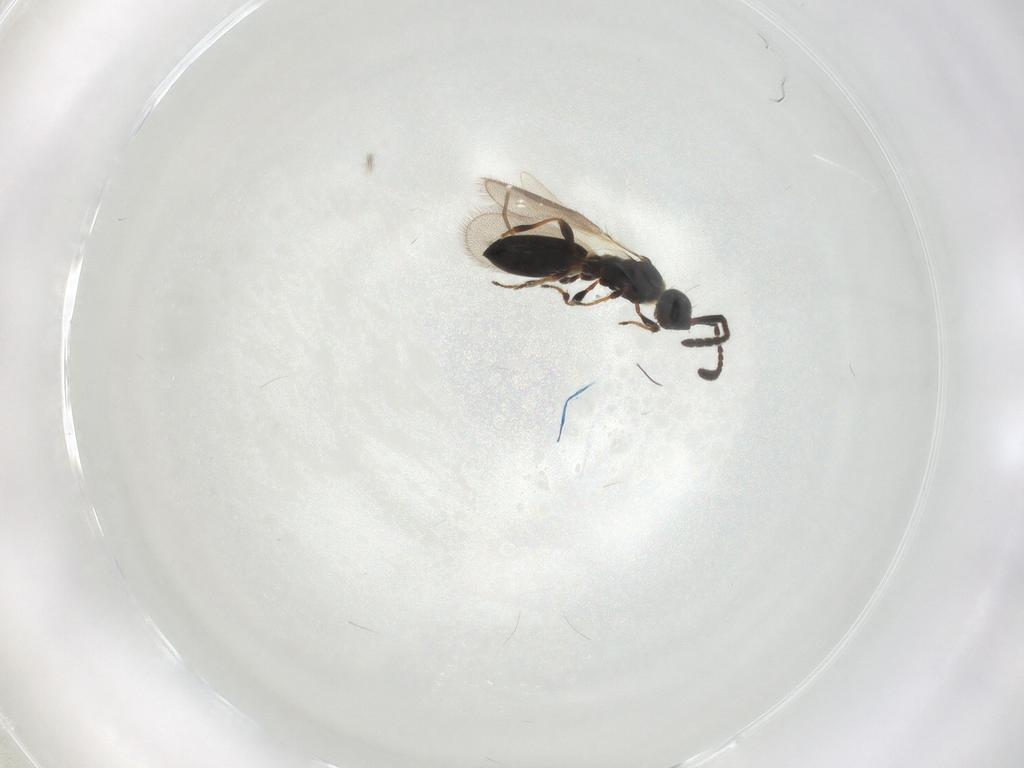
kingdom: Animalia
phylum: Arthropoda
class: Insecta
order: Hymenoptera
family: Diapriidae
